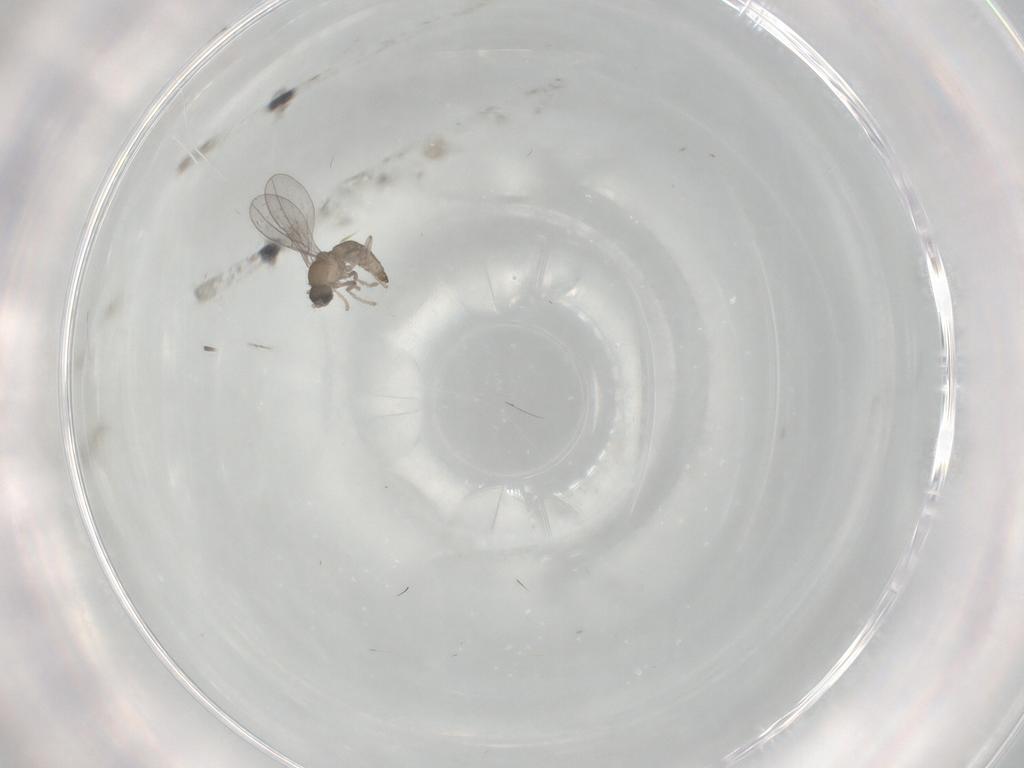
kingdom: Animalia
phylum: Arthropoda
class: Insecta
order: Diptera
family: Cecidomyiidae
